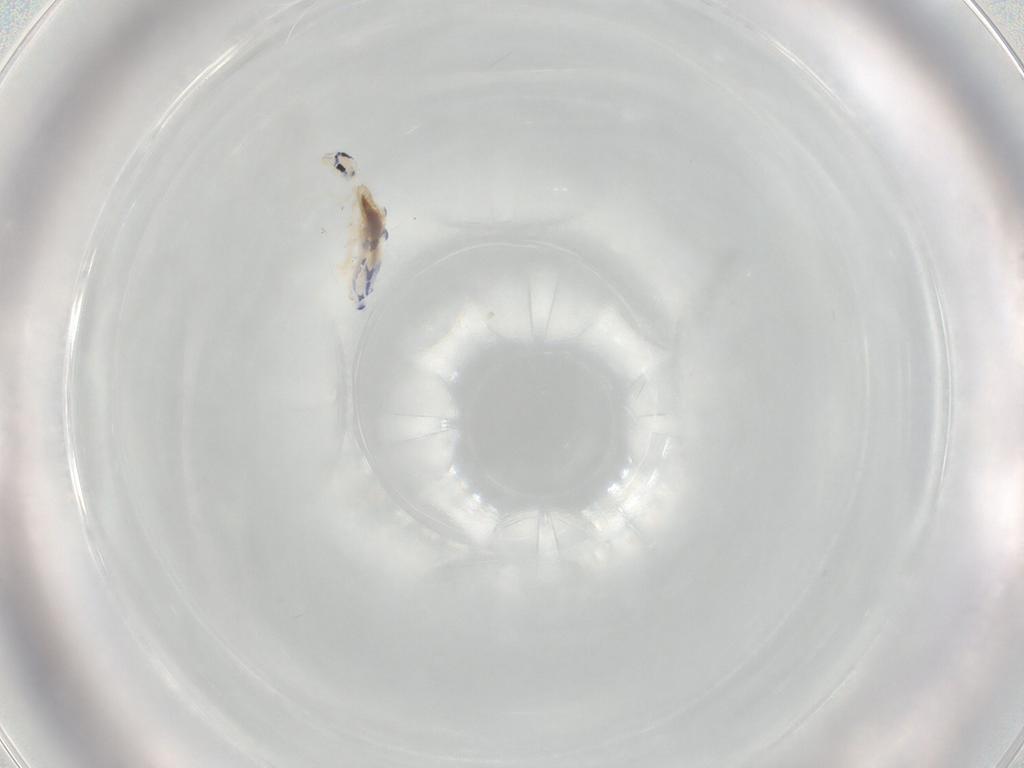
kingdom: Animalia
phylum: Arthropoda
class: Collembola
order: Entomobryomorpha
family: Entomobryidae
